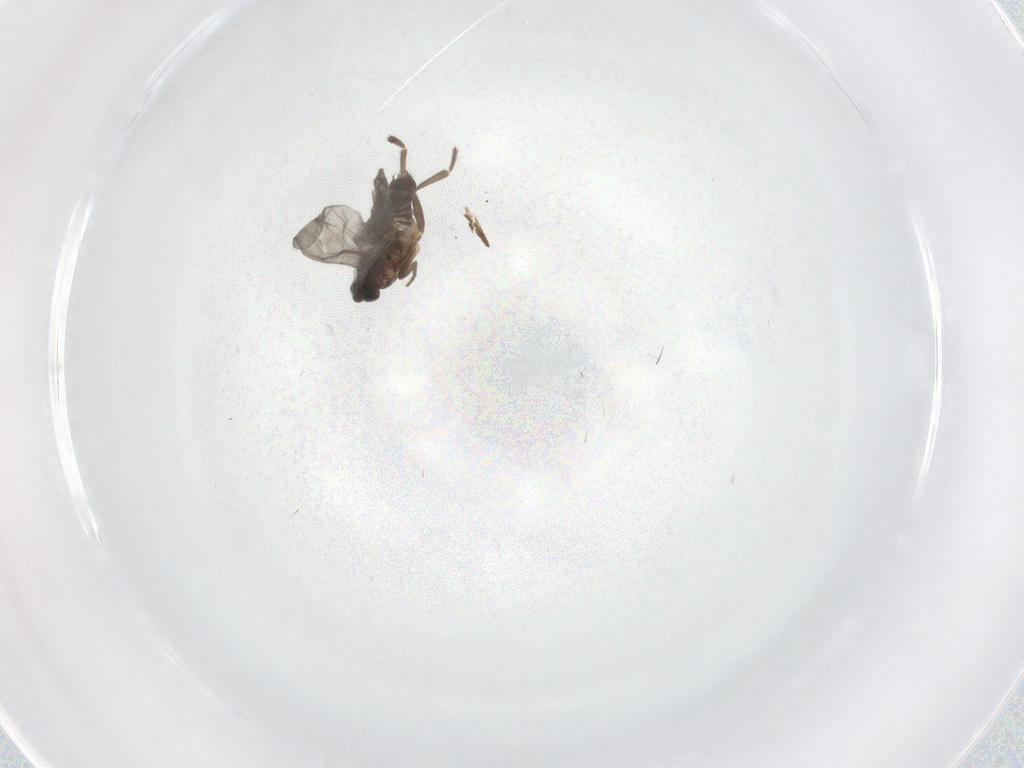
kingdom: Animalia
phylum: Arthropoda
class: Insecta
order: Diptera
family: Phoridae
